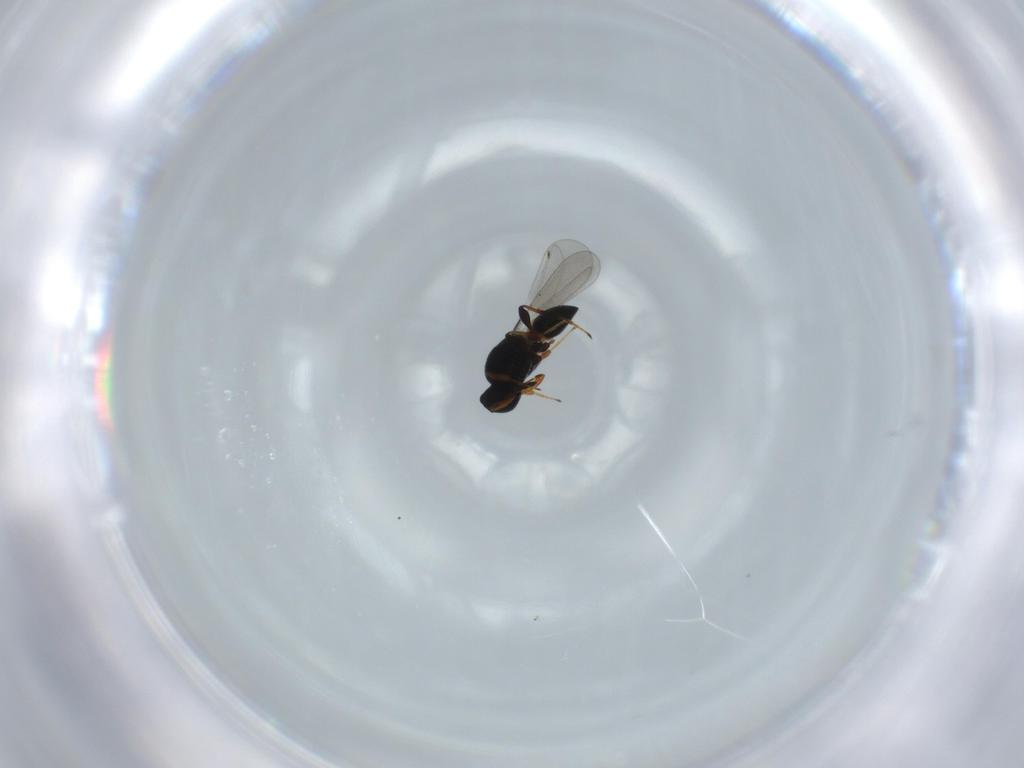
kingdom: Animalia
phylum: Arthropoda
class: Insecta
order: Hymenoptera
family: Platygastridae
